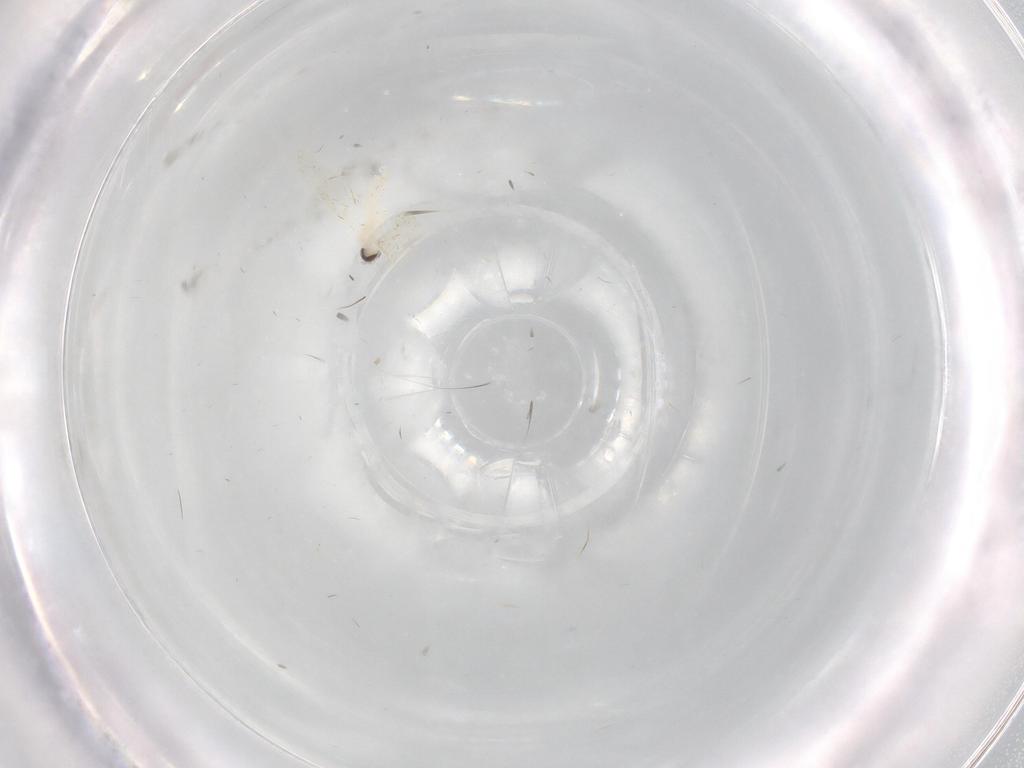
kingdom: Animalia
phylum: Arthropoda
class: Insecta
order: Diptera
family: Cecidomyiidae
